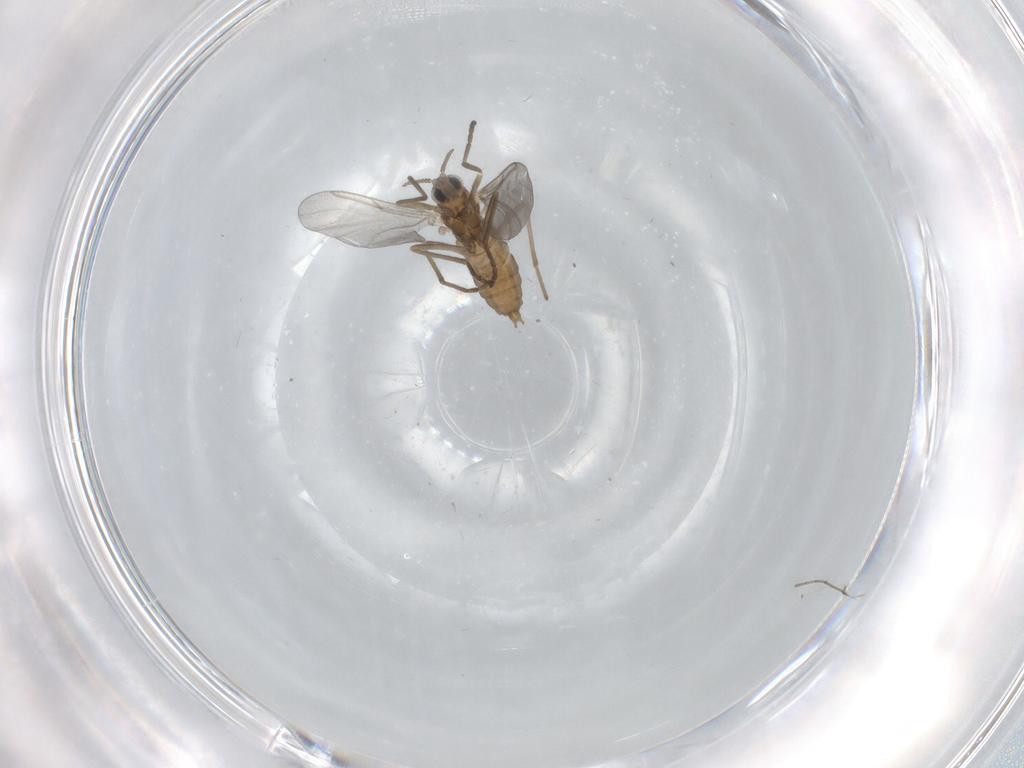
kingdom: Animalia
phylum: Arthropoda
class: Insecta
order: Diptera
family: Cecidomyiidae
